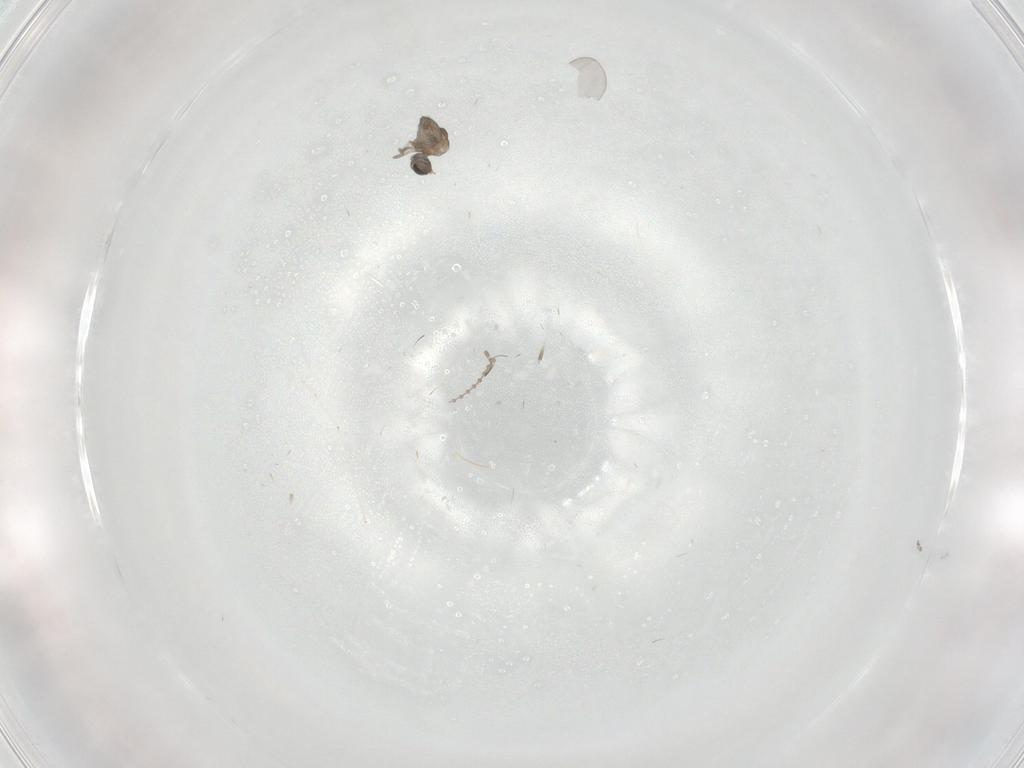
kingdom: Animalia
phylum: Arthropoda
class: Insecta
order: Diptera
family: Cecidomyiidae
